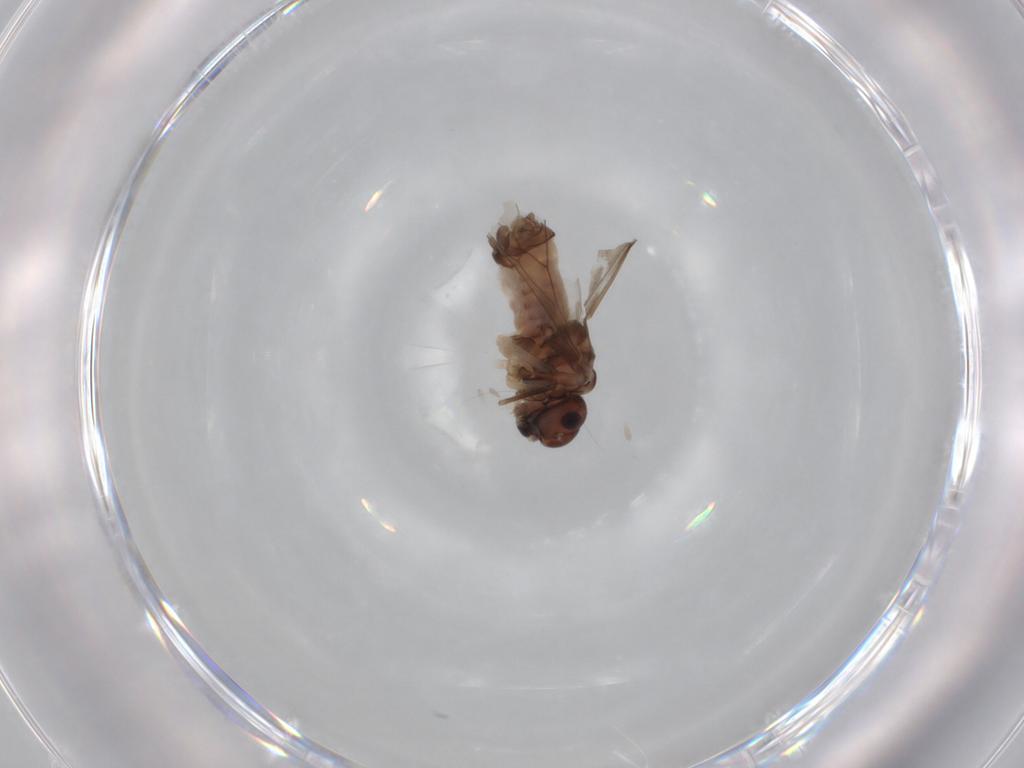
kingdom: Animalia
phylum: Arthropoda
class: Insecta
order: Psocodea
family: Peripsocidae
